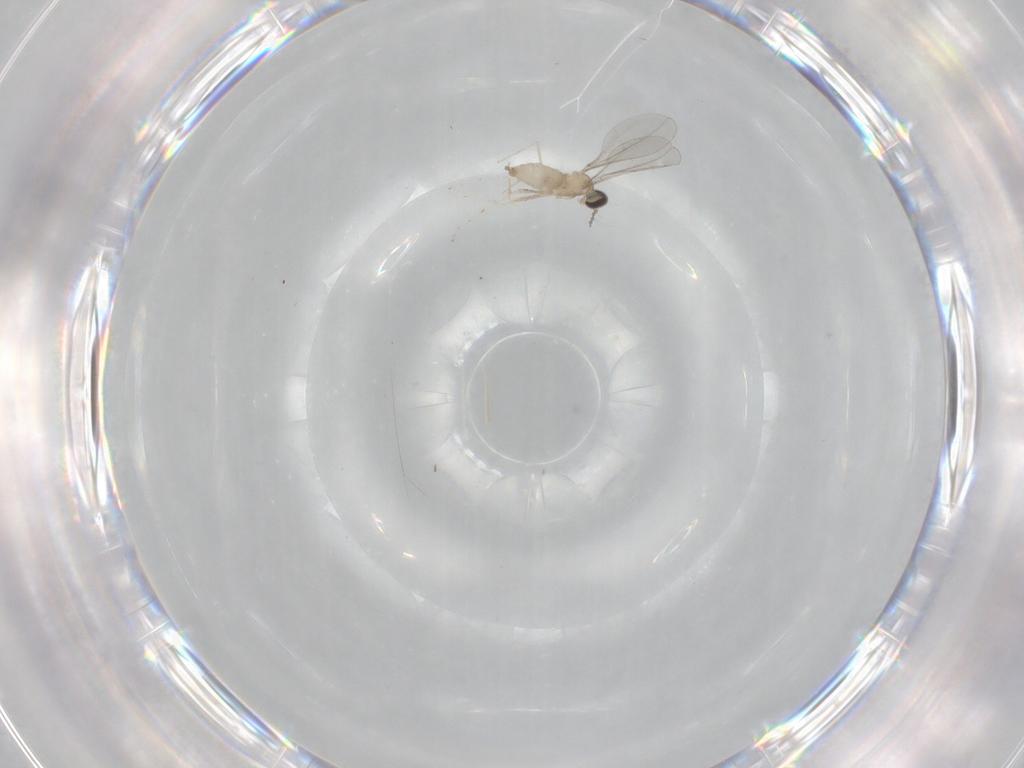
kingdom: Animalia
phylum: Arthropoda
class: Insecta
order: Diptera
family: Cecidomyiidae
